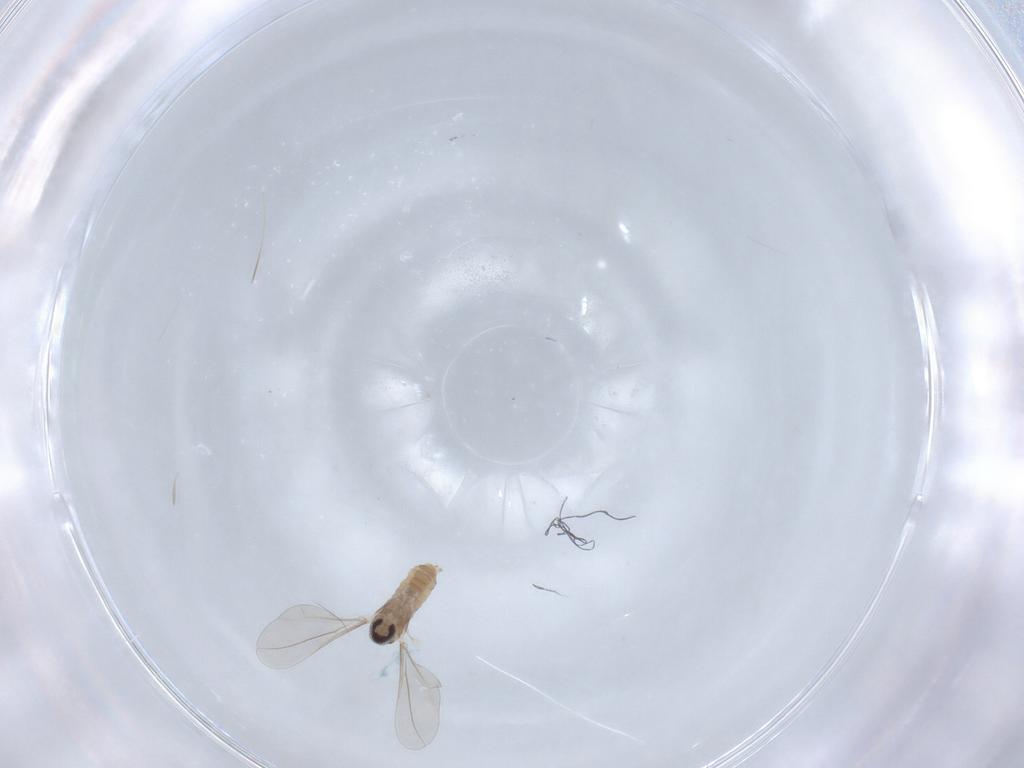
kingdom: Animalia
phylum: Arthropoda
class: Insecta
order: Diptera
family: Cecidomyiidae
